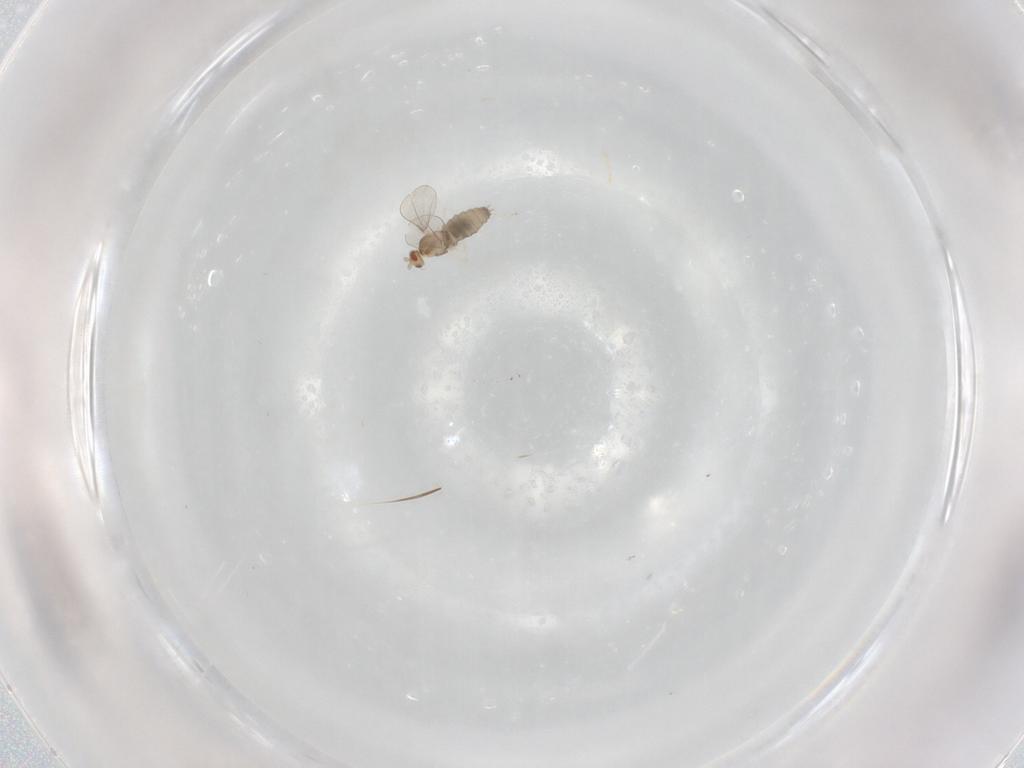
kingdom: Animalia
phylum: Arthropoda
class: Insecta
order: Diptera
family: Cecidomyiidae
